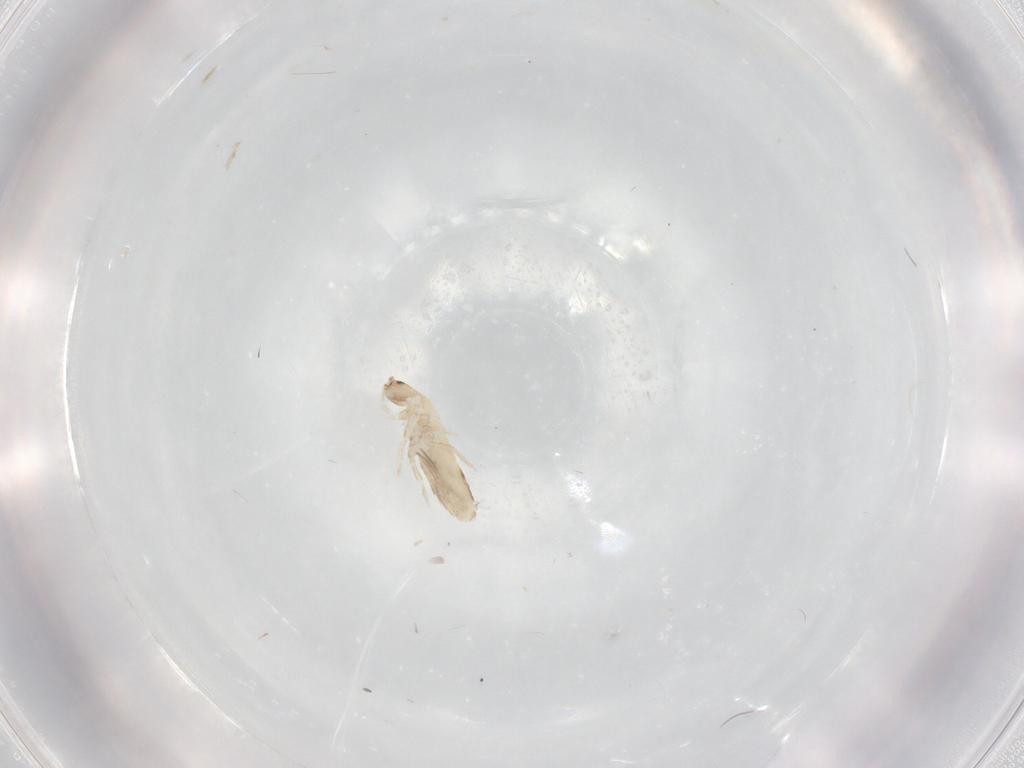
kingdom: Animalia
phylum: Arthropoda
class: Collembola
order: Entomobryomorpha
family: Entomobryidae
